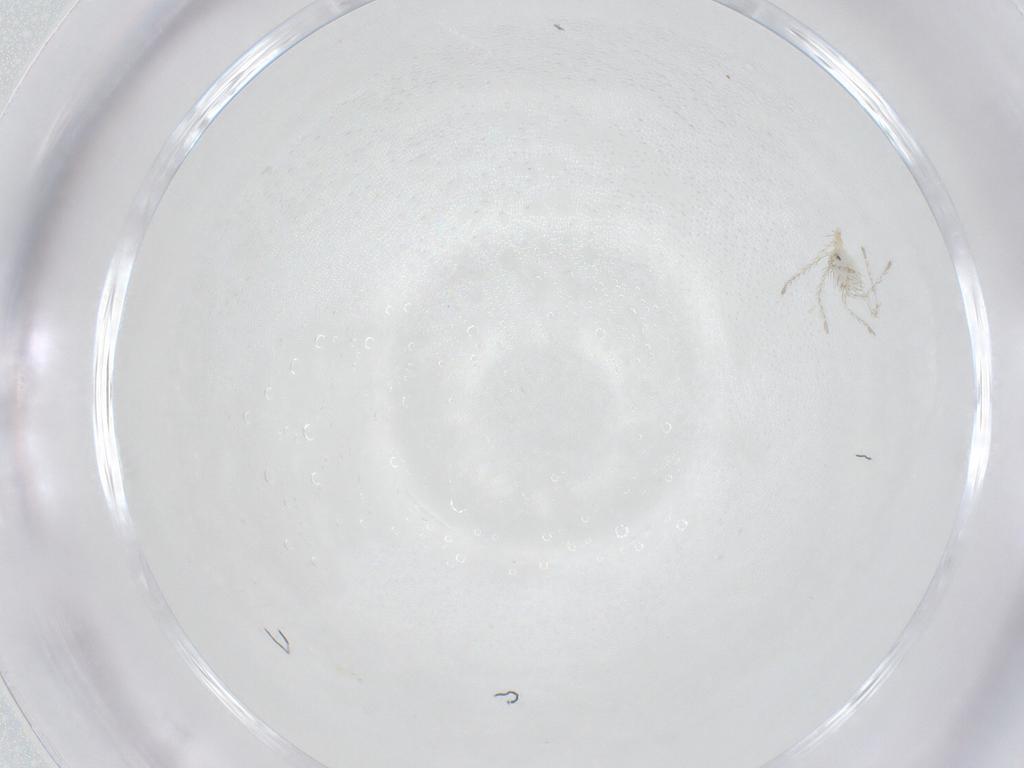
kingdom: Animalia
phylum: Arthropoda
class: Arachnida
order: Trombidiformes
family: Erythraeidae
